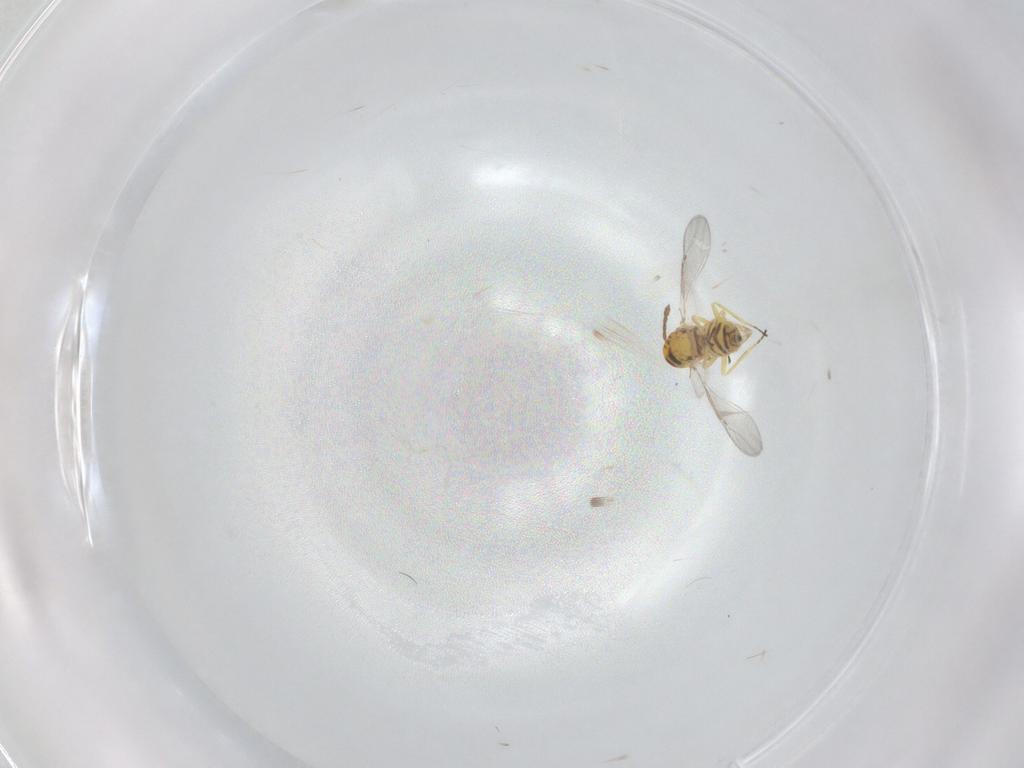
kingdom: Animalia
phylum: Arthropoda
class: Insecta
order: Hymenoptera
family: Eulophidae
